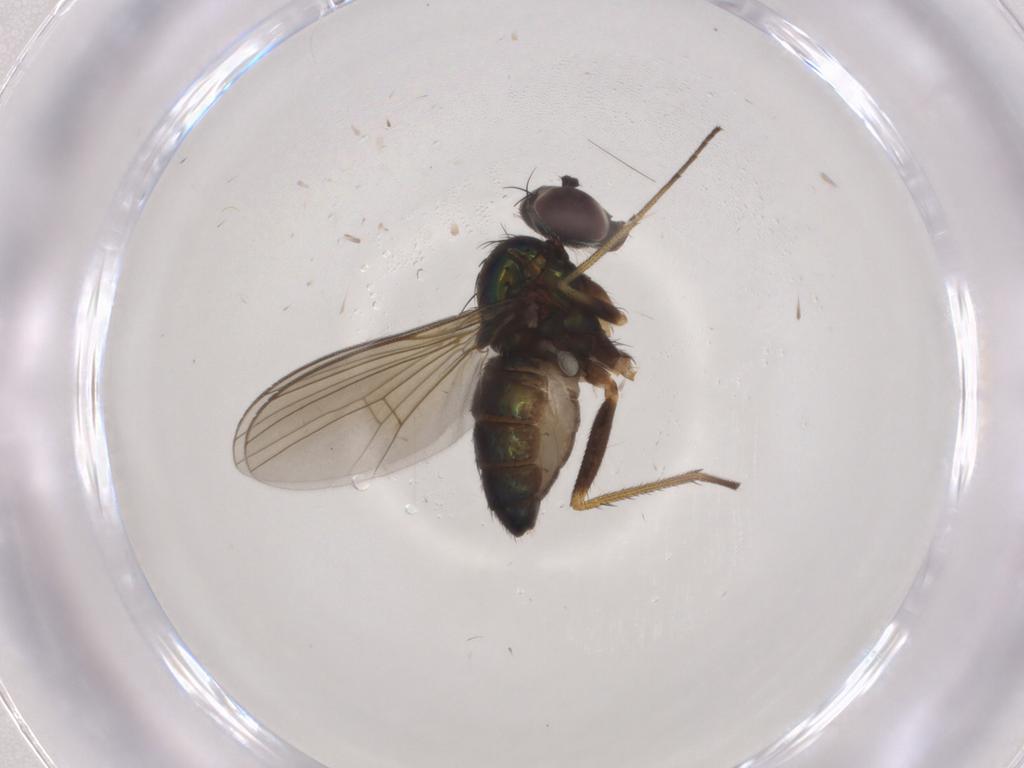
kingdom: Animalia
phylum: Arthropoda
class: Insecta
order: Diptera
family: Dolichopodidae
